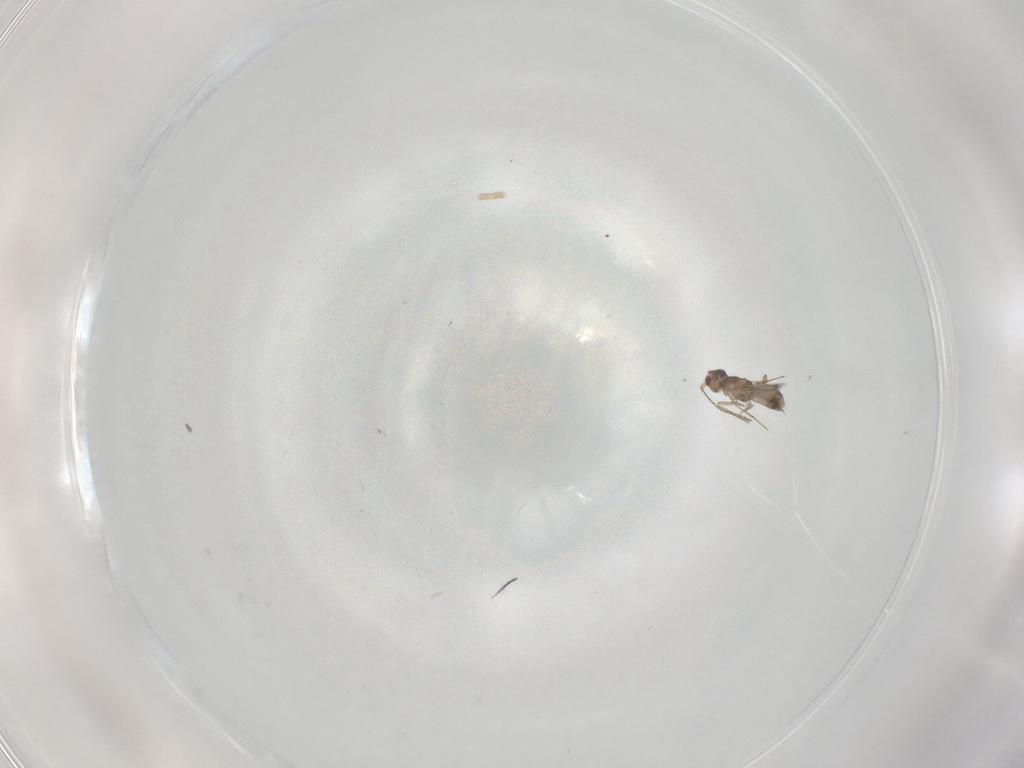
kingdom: Animalia
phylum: Arthropoda
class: Insecta
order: Hymenoptera
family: Mymaridae
